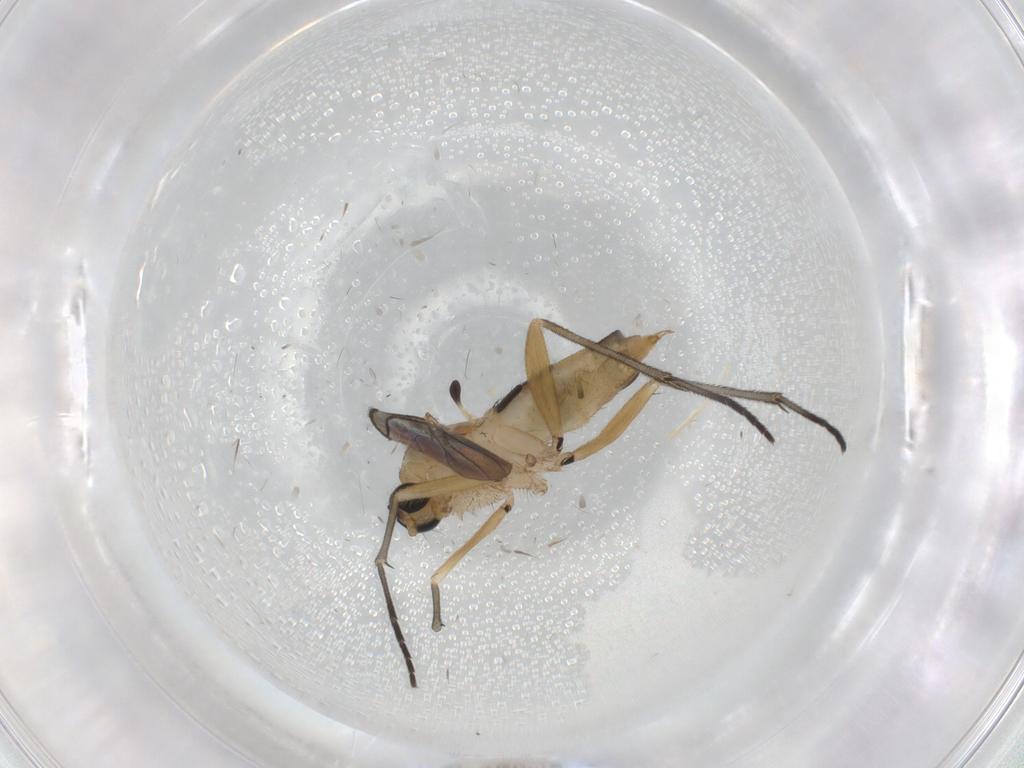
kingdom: Animalia
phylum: Arthropoda
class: Insecta
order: Diptera
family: Sciaridae
